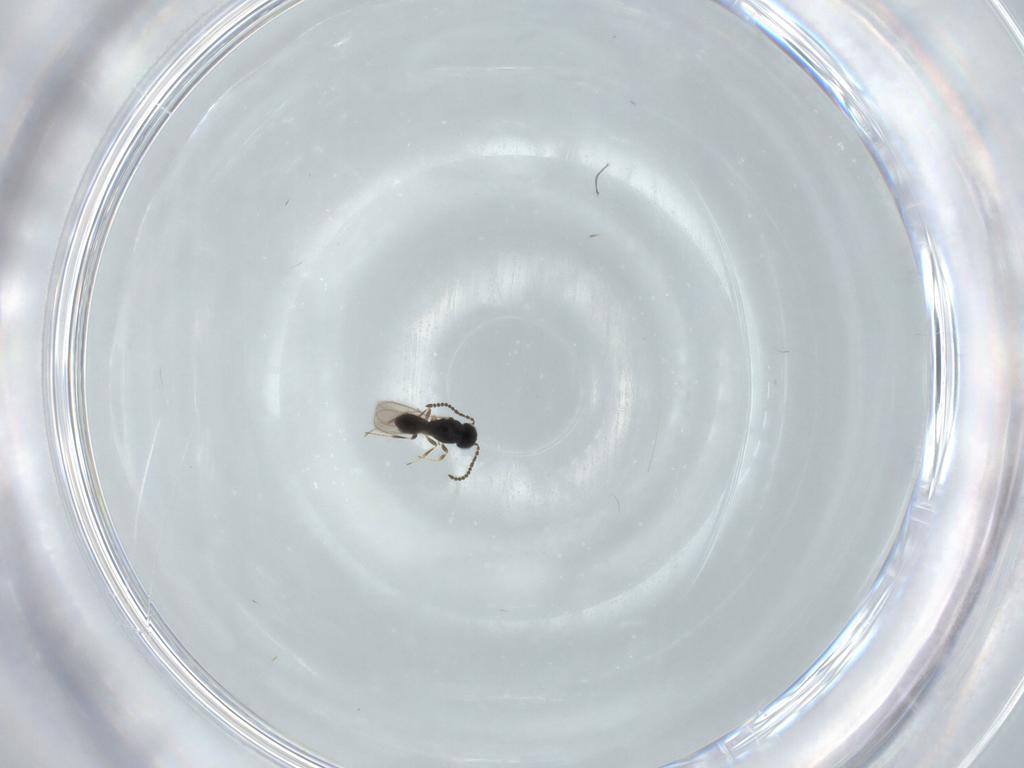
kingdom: Animalia
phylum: Arthropoda
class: Insecta
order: Hymenoptera
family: Scelionidae
